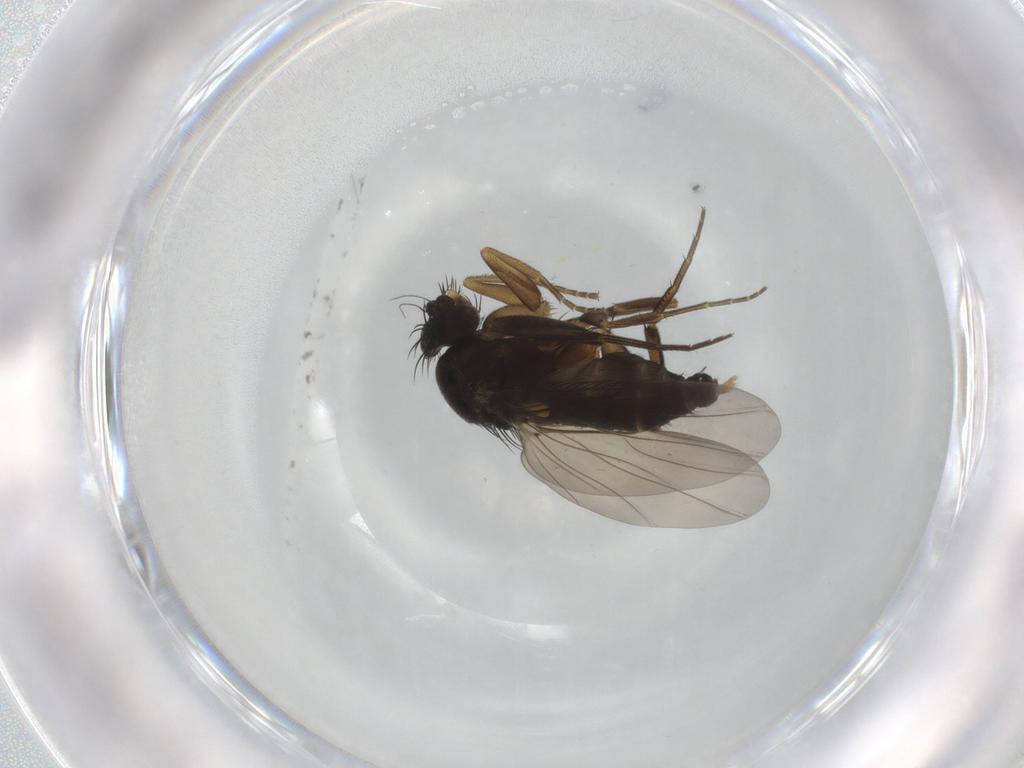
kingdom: Animalia
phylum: Arthropoda
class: Insecta
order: Diptera
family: Phoridae
